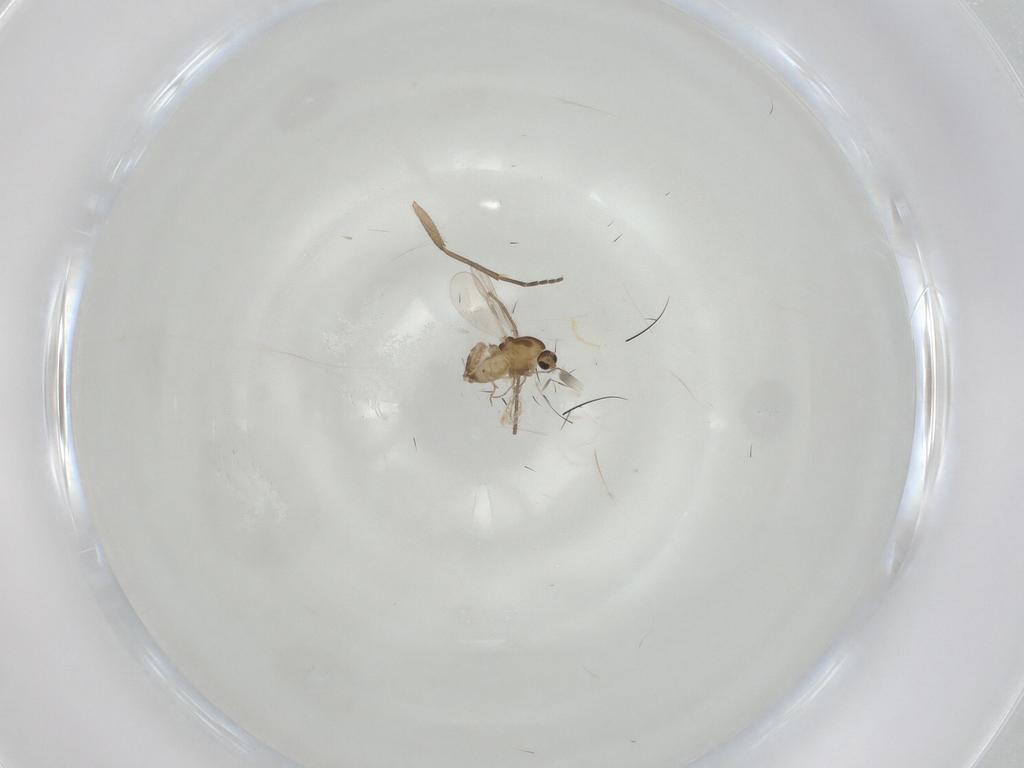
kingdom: Animalia
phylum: Arthropoda
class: Insecta
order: Diptera
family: Chironomidae
